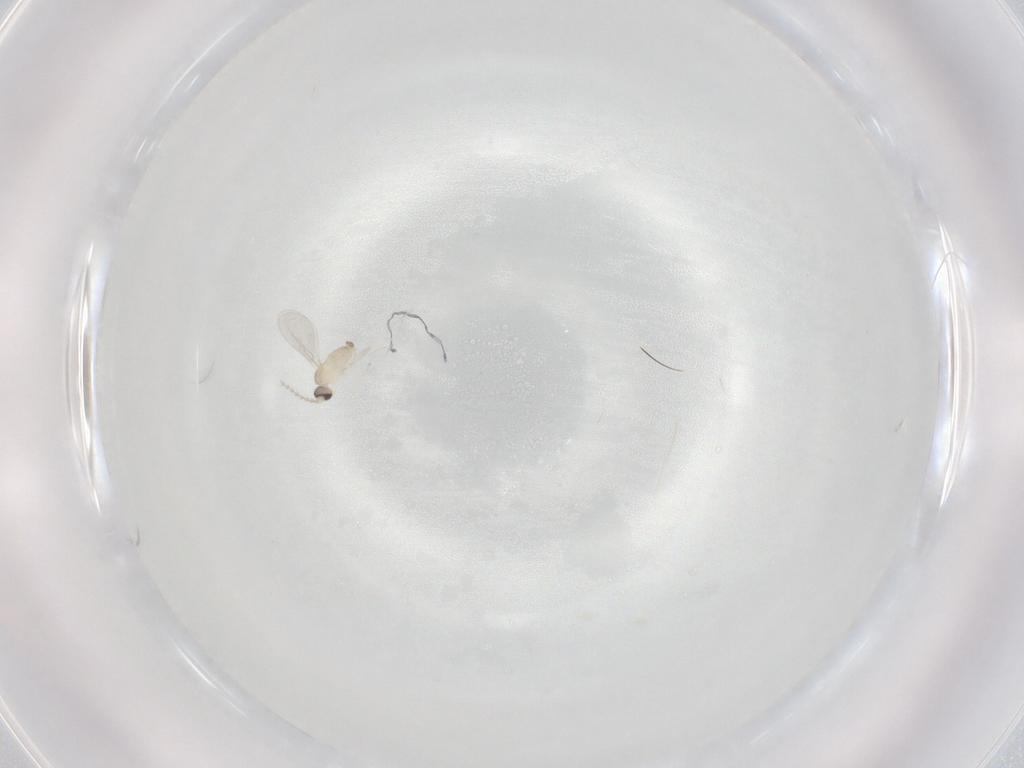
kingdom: Animalia
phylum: Arthropoda
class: Insecta
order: Diptera
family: Cecidomyiidae
